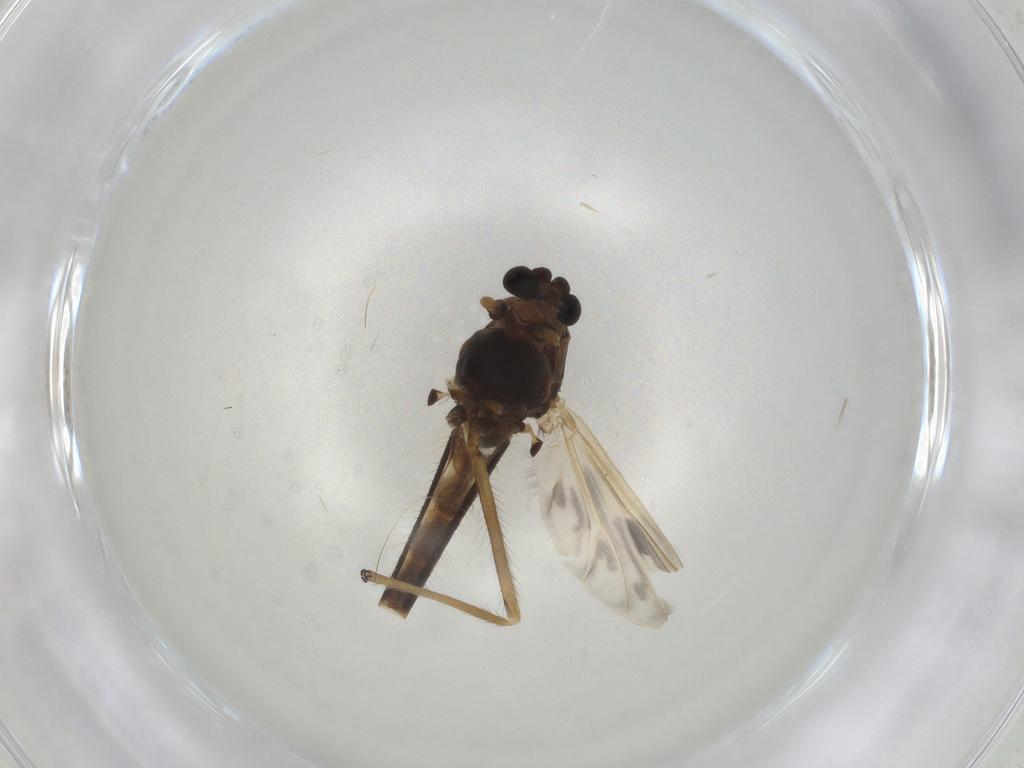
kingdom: Animalia
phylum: Arthropoda
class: Insecta
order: Diptera
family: Chironomidae
